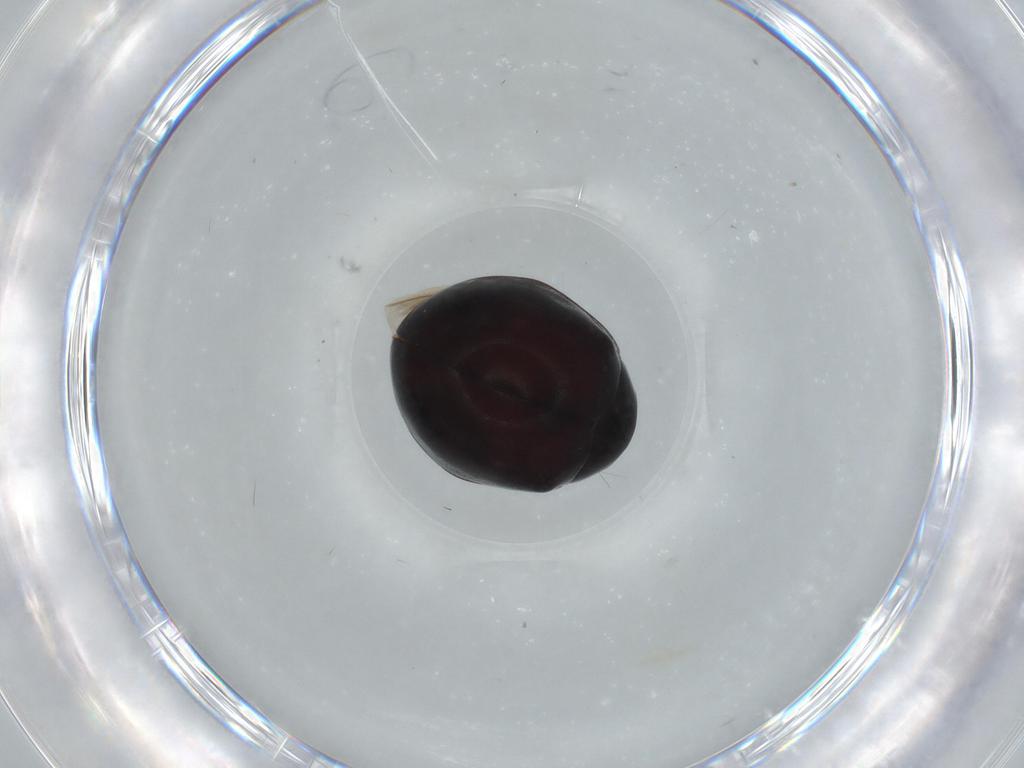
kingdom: Animalia
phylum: Arthropoda
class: Insecta
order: Coleoptera
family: Coccinellidae
